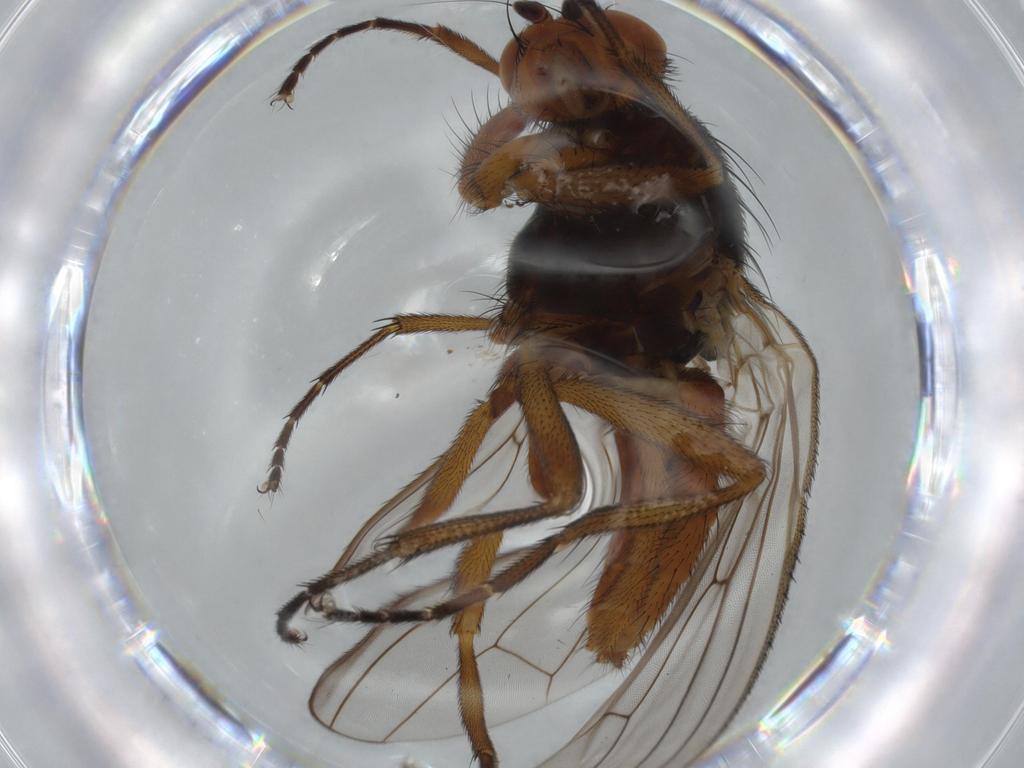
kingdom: Animalia
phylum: Arthropoda
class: Insecta
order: Diptera
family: Heleomyzidae
